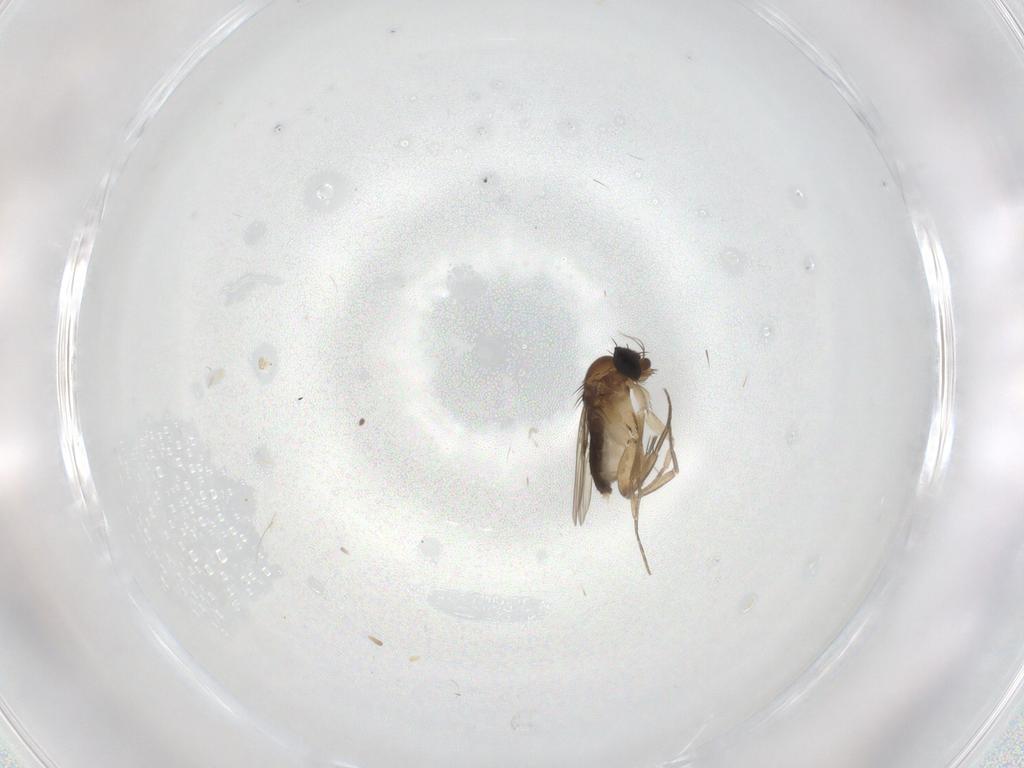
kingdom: Animalia
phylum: Arthropoda
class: Insecta
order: Diptera
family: Phoridae
